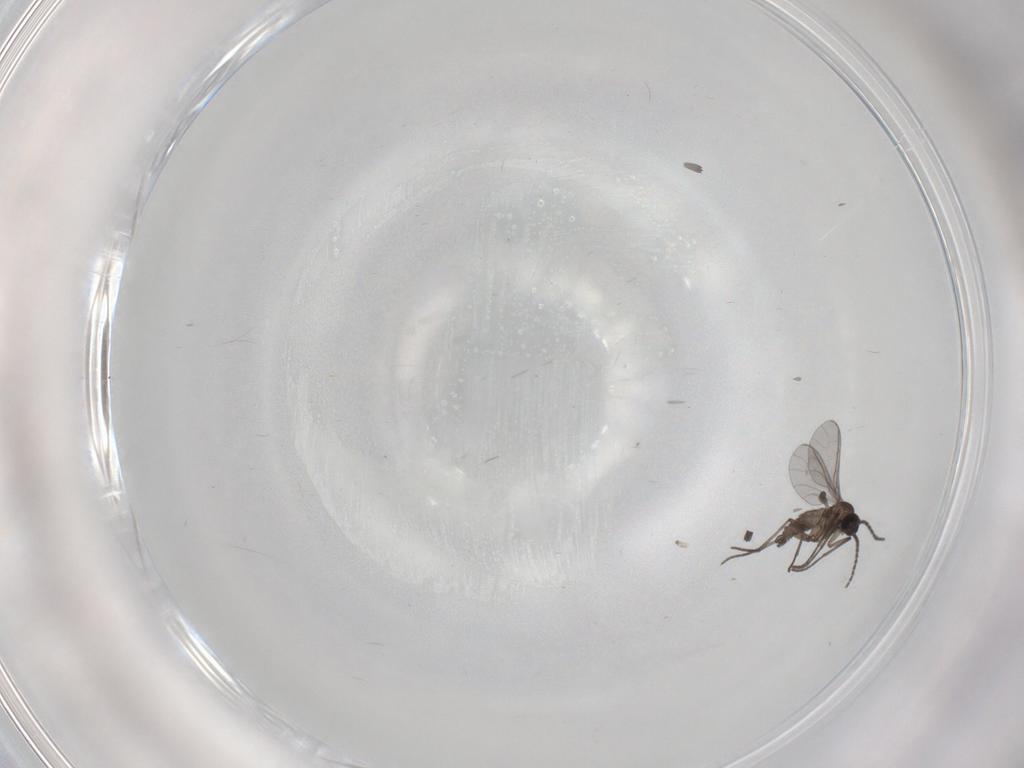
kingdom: Animalia
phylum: Arthropoda
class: Insecta
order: Diptera
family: Sciaridae
